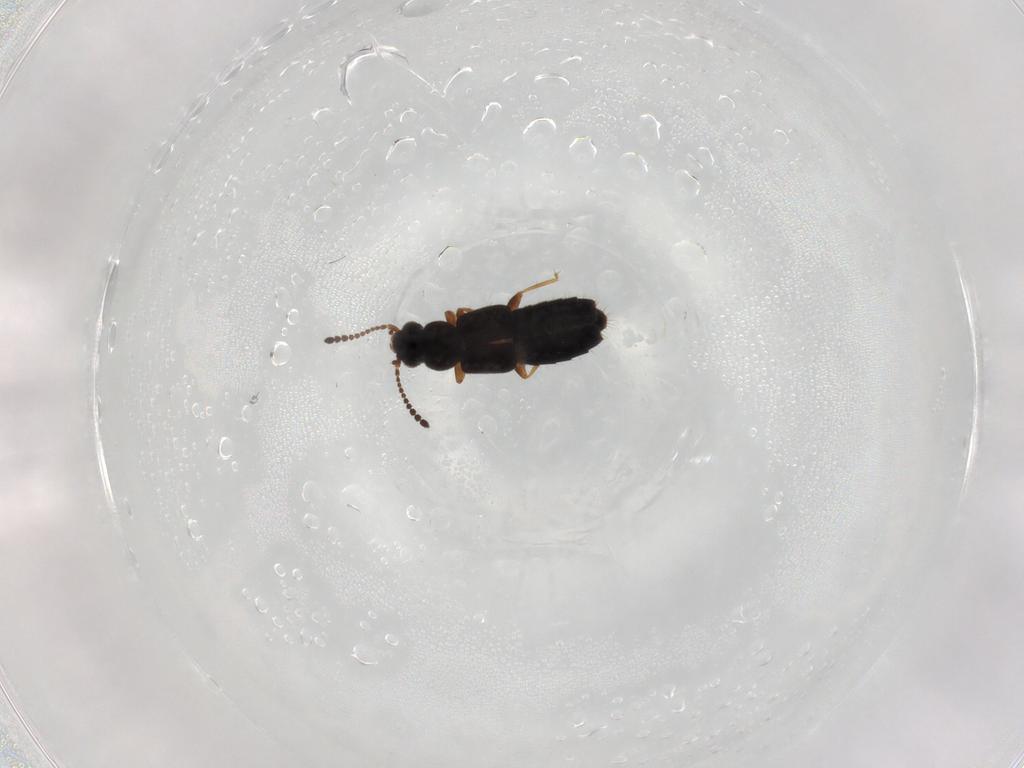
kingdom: Animalia
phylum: Arthropoda
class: Insecta
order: Coleoptera
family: Staphylinidae
